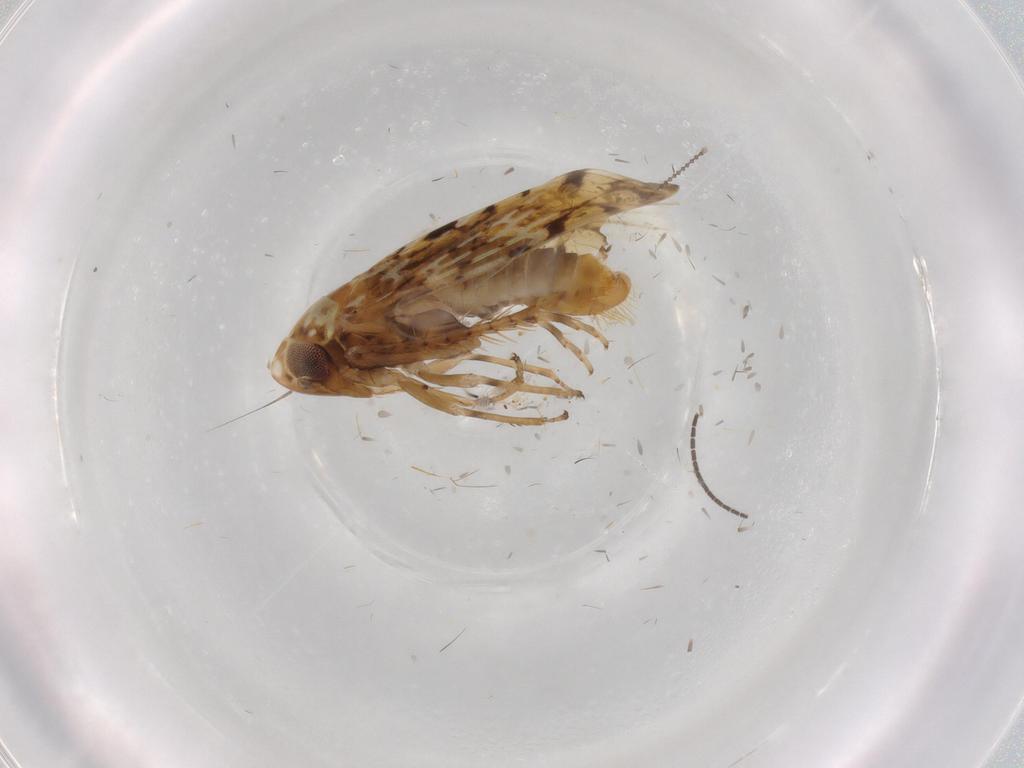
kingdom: Animalia
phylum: Arthropoda
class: Insecta
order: Hemiptera
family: Cicadellidae
